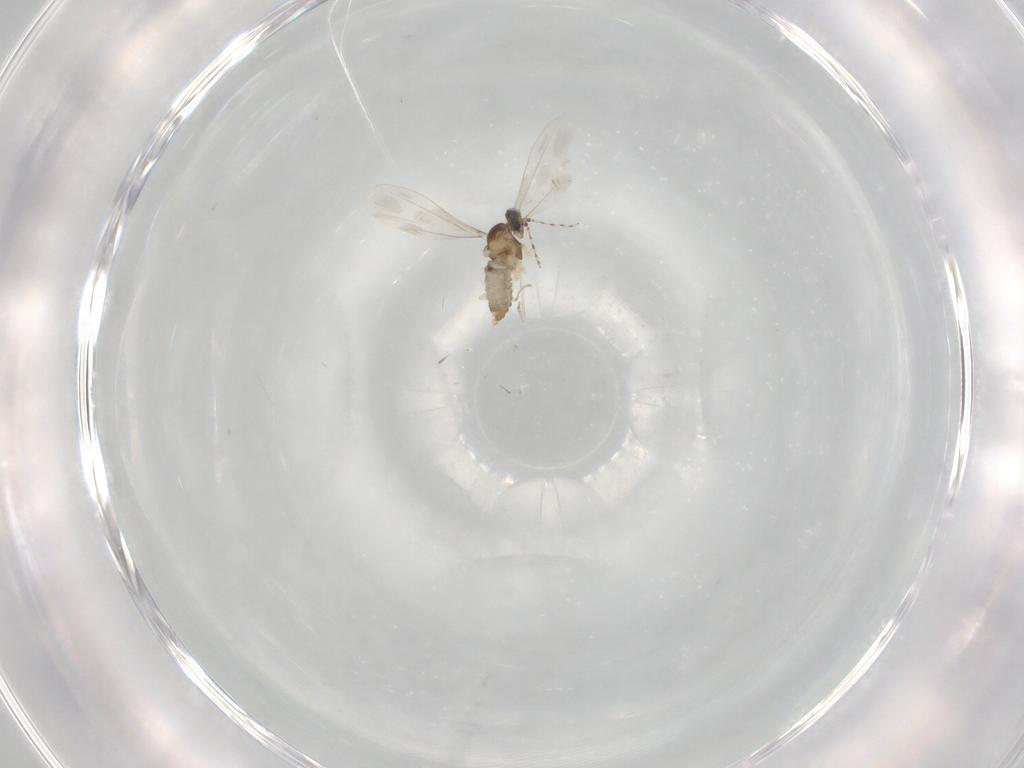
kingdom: Animalia
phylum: Arthropoda
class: Insecta
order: Diptera
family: Cecidomyiidae
